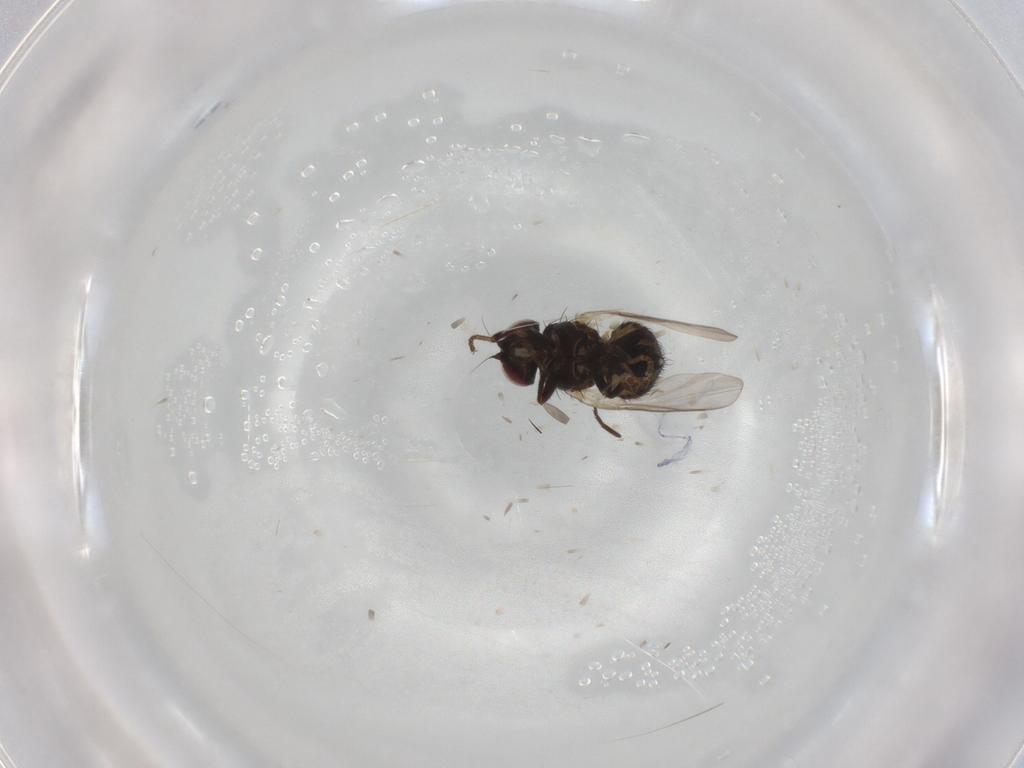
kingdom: Animalia
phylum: Arthropoda
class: Insecta
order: Diptera
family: Agromyzidae
